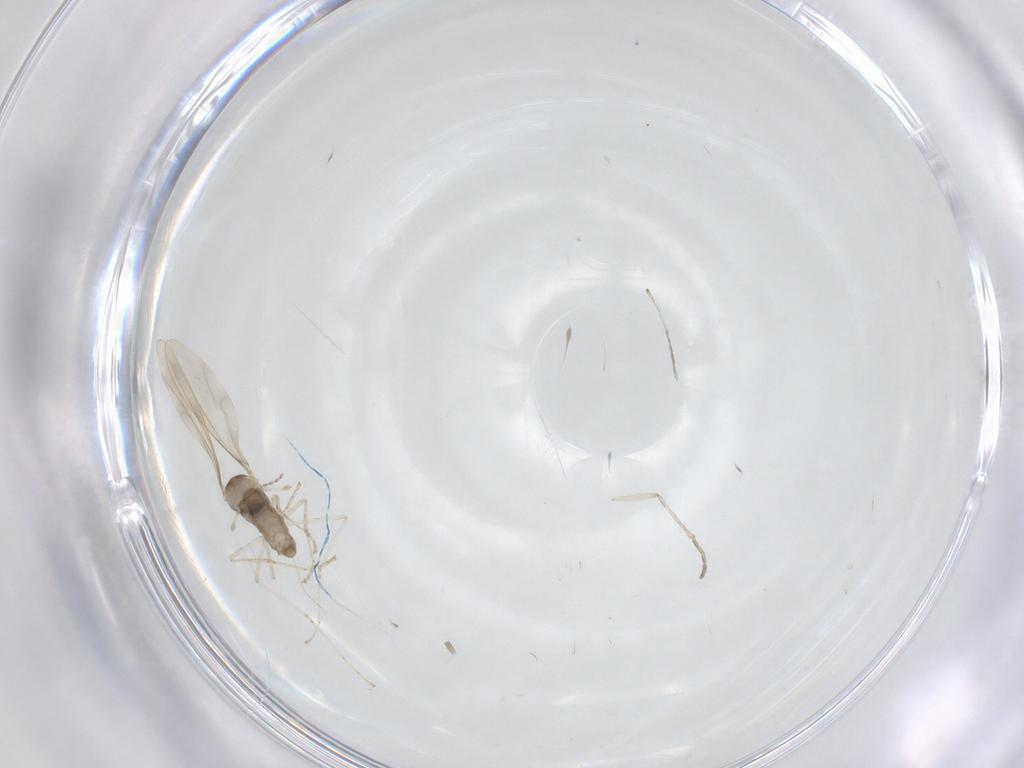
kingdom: Animalia
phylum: Arthropoda
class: Insecta
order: Diptera
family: Cecidomyiidae
